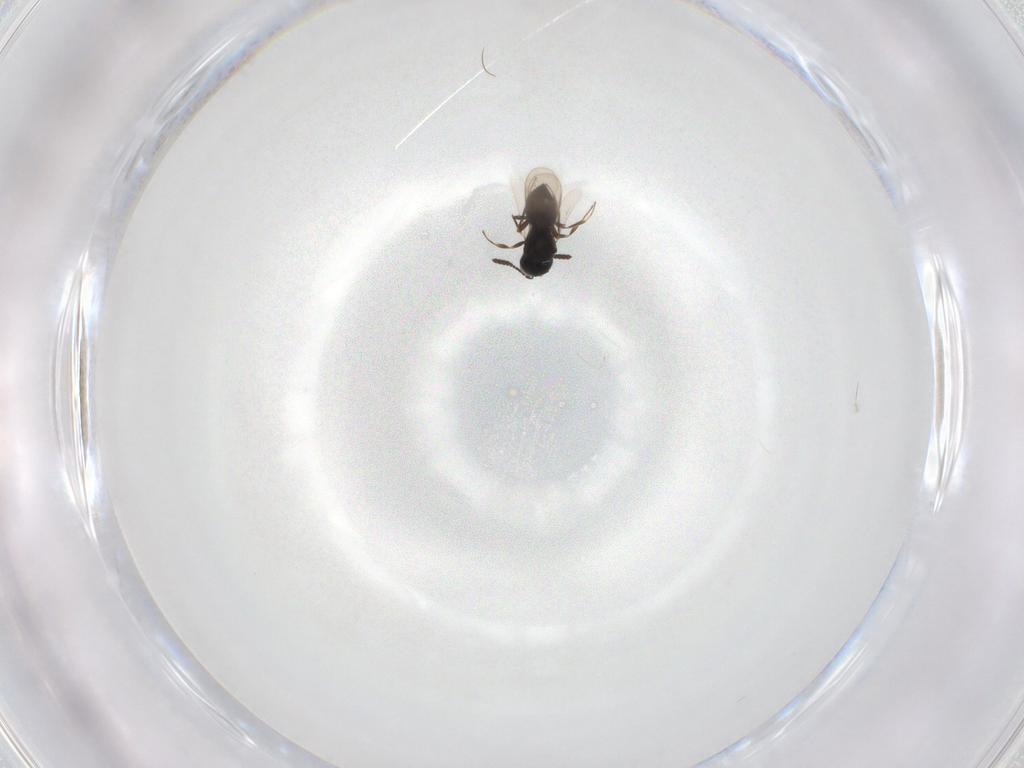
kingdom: Animalia
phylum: Arthropoda
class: Insecta
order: Hymenoptera
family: Scelionidae
